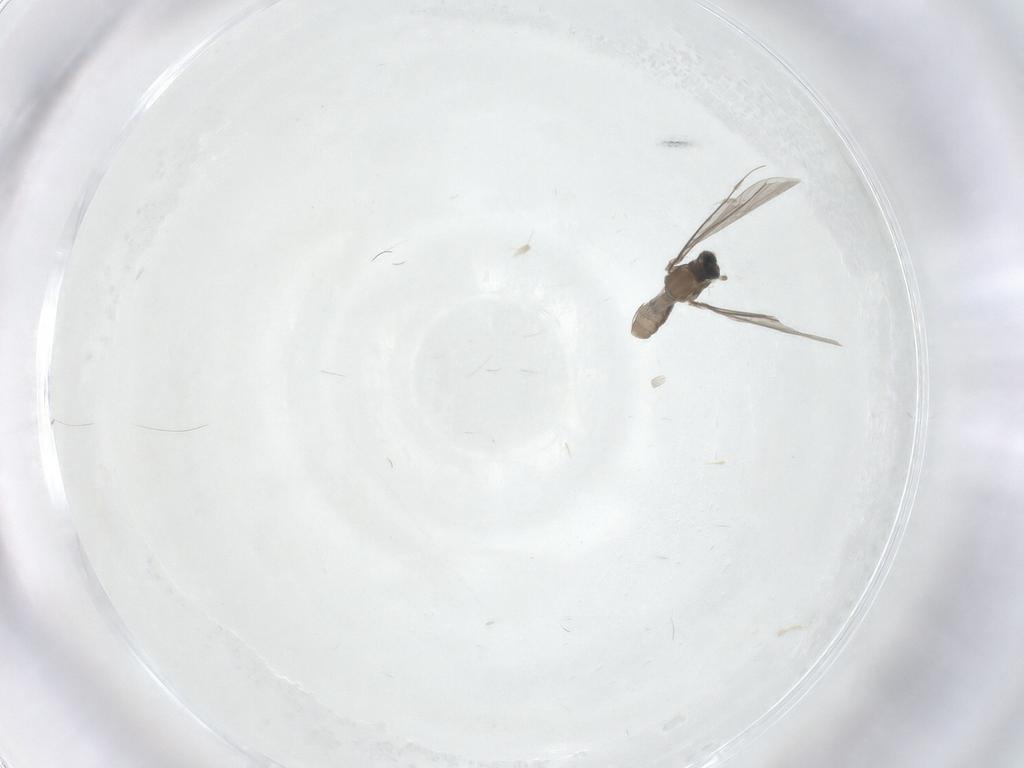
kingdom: Animalia
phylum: Arthropoda
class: Insecta
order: Diptera
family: Cecidomyiidae
